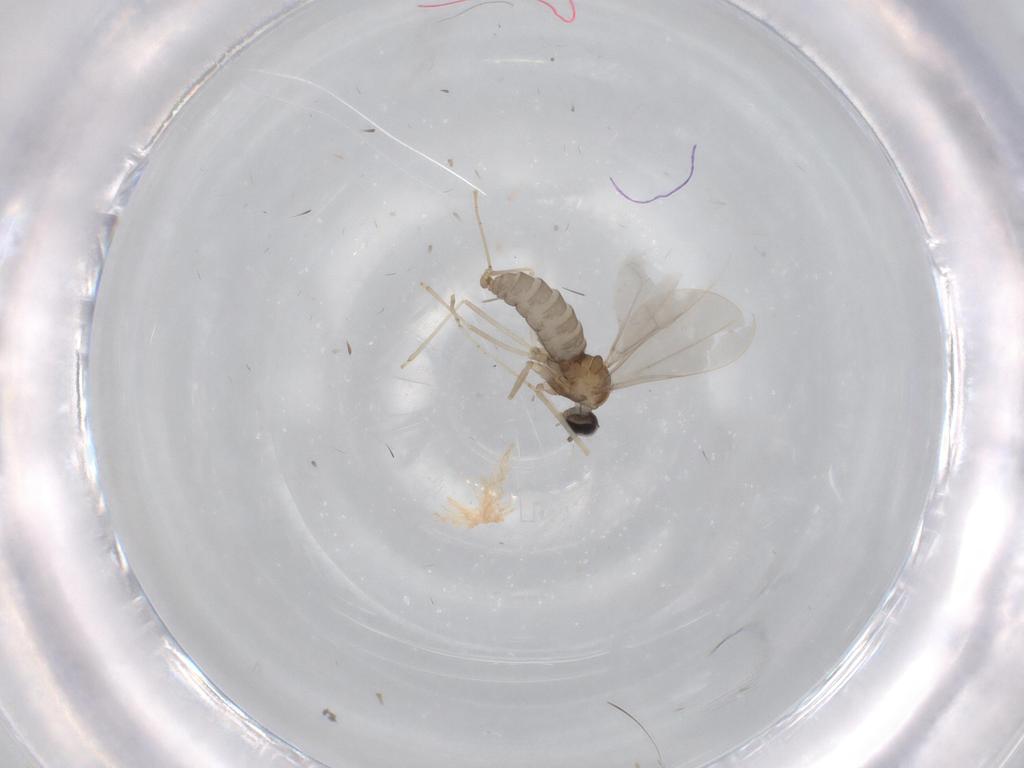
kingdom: Animalia
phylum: Arthropoda
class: Insecta
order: Diptera
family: Cecidomyiidae
